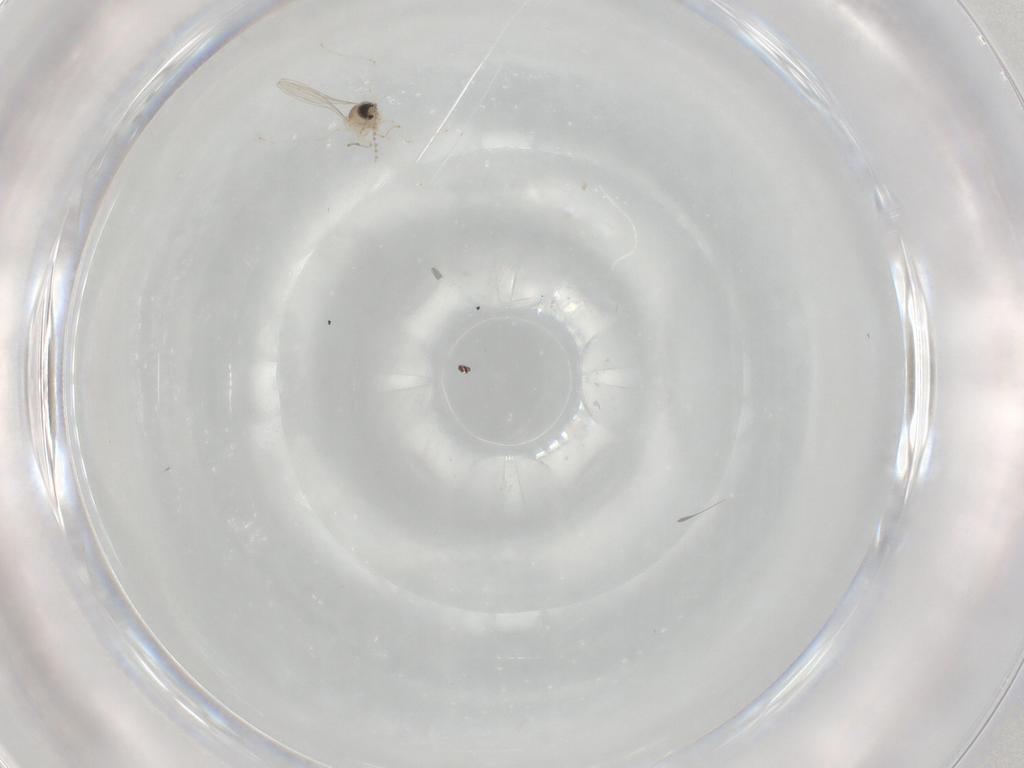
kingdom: Animalia
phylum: Arthropoda
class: Insecta
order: Diptera
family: Cecidomyiidae
